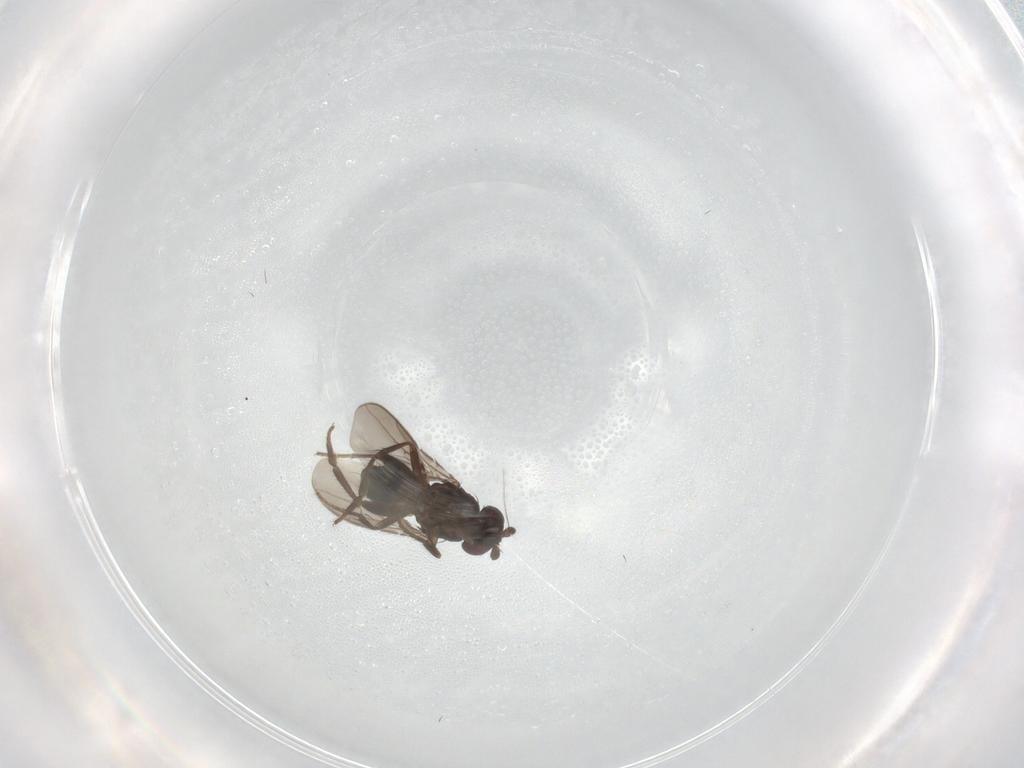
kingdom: Animalia
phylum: Arthropoda
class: Insecta
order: Diptera
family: Sphaeroceridae
